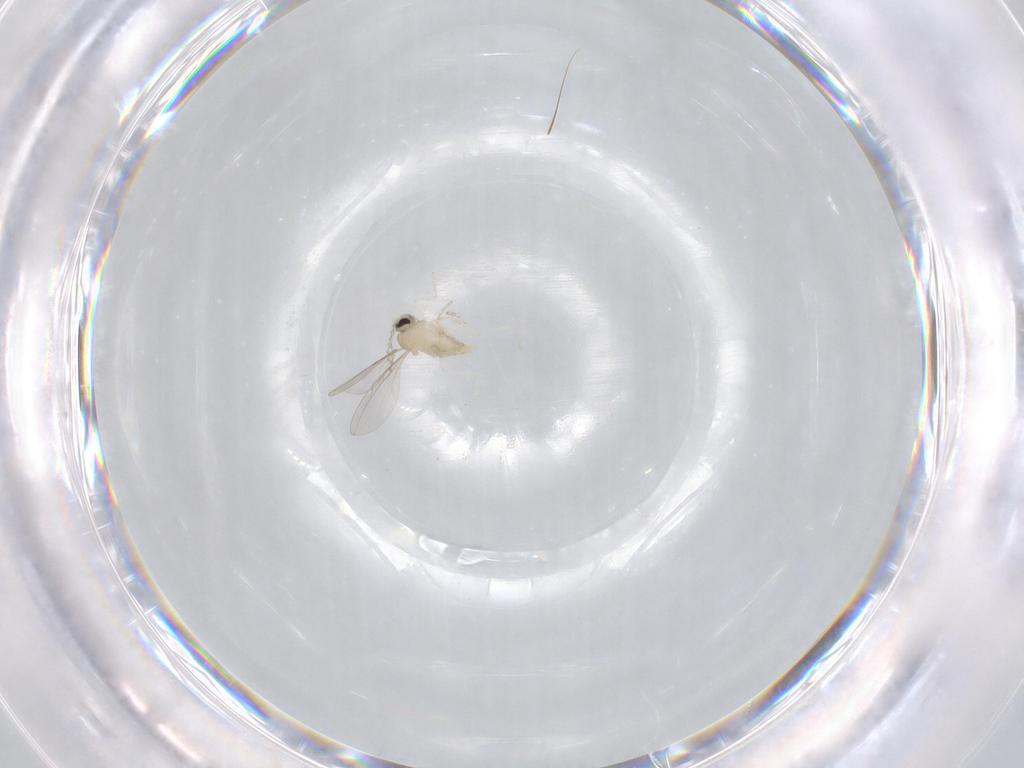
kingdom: Animalia
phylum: Arthropoda
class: Insecta
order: Diptera
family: Cecidomyiidae
